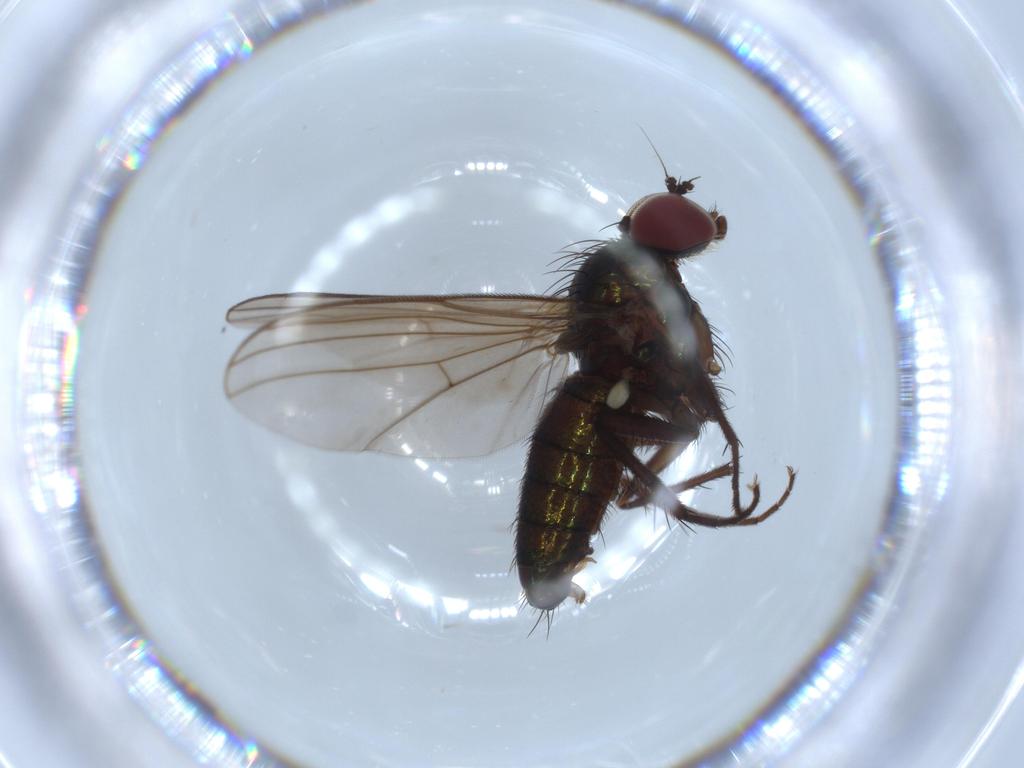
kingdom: Animalia
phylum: Arthropoda
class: Insecta
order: Diptera
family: Dolichopodidae
